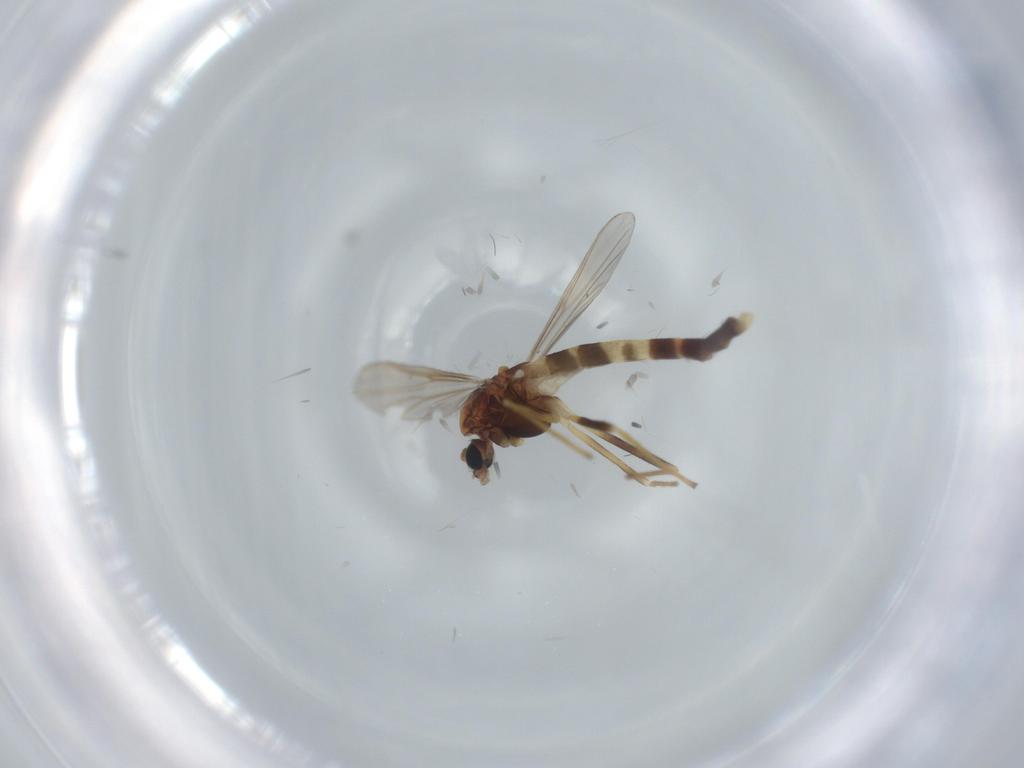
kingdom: Animalia
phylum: Arthropoda
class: Insecta
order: Diptera
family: Chironomidae
